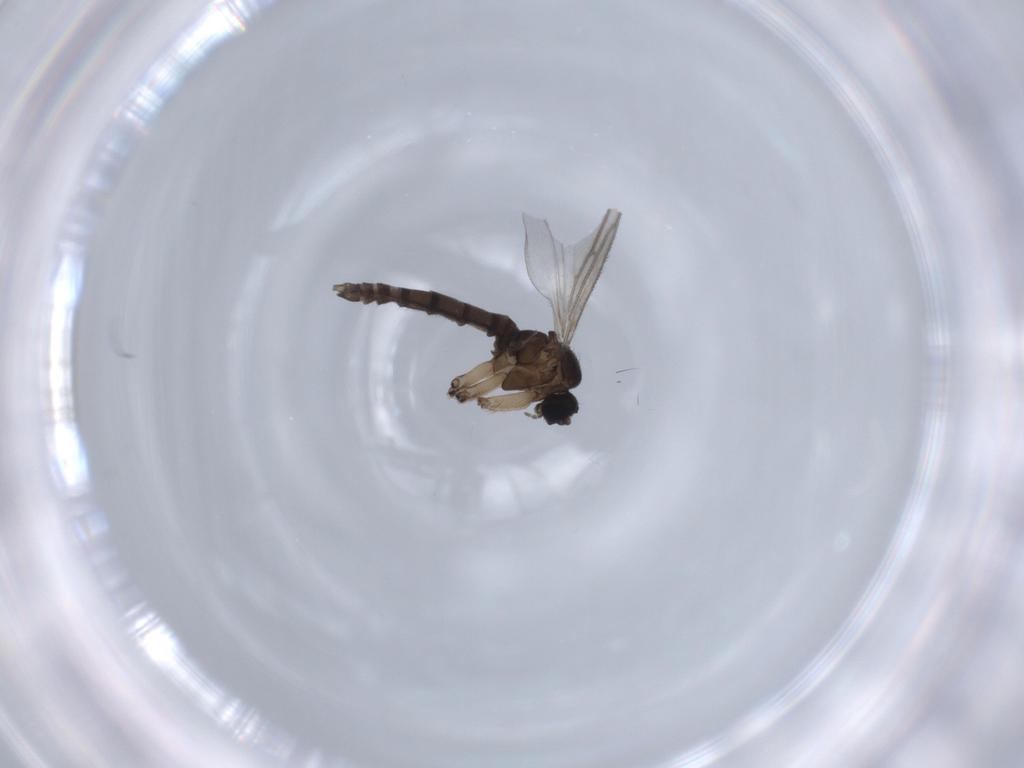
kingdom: Animalia
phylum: Arthropoda
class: Insecta
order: Diptera
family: Sciaridae
